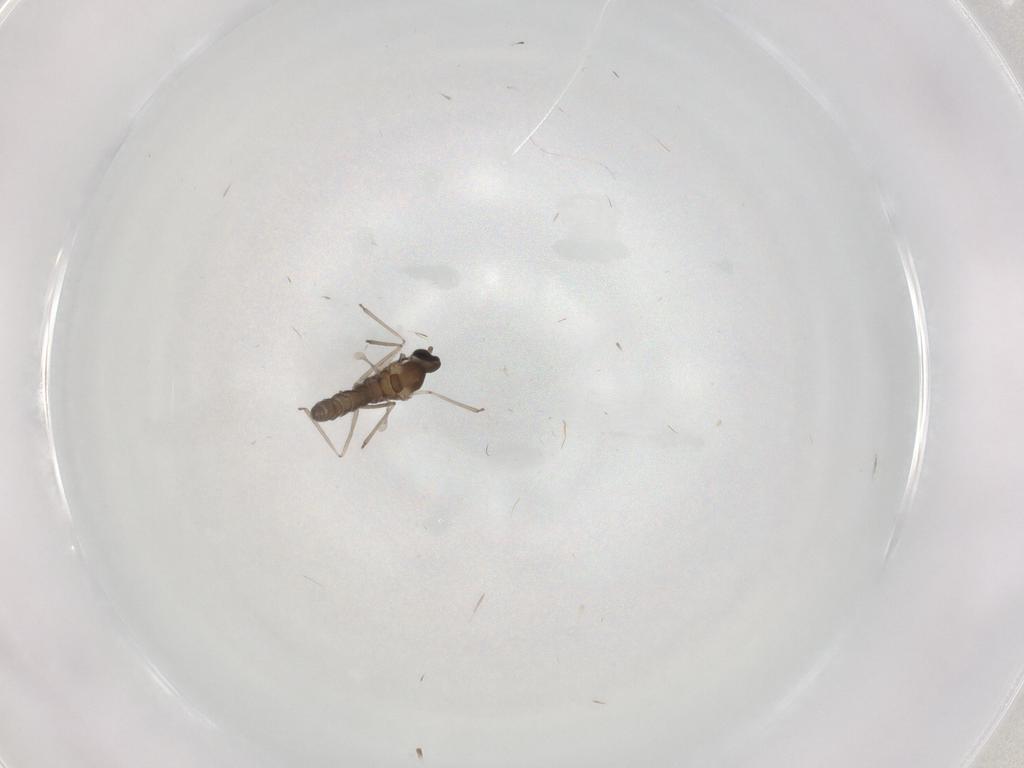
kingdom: Animalia
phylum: Arthropoda
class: Insecta
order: Diptera
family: Cecidomyiidae
